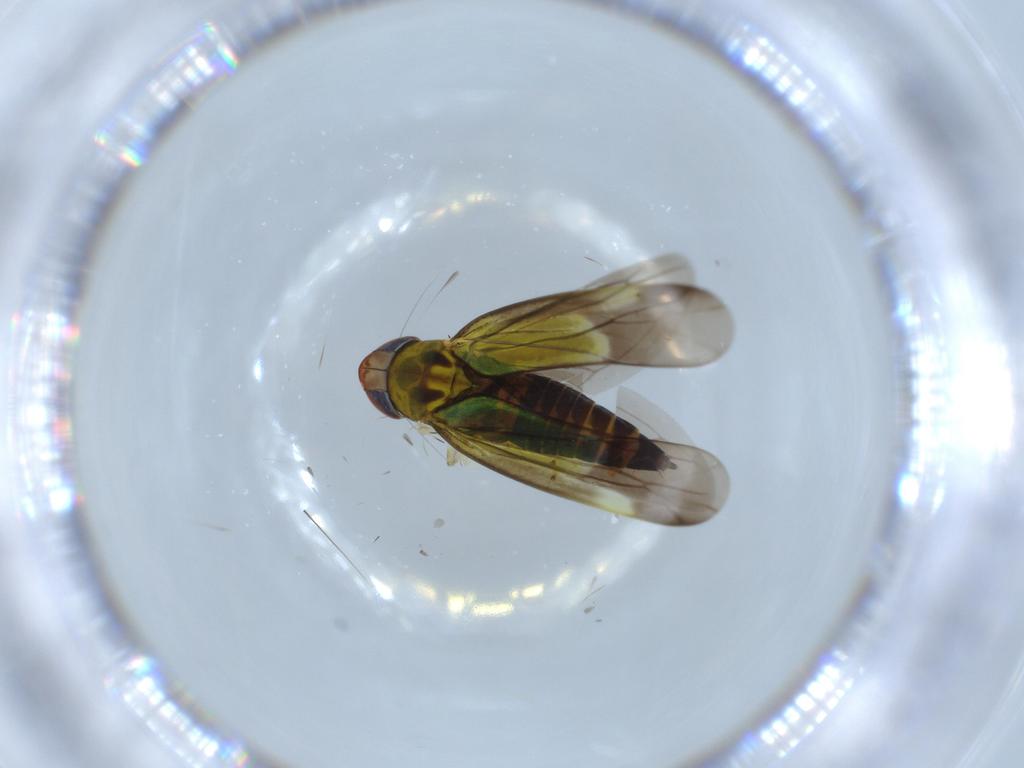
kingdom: Animalia
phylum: Arthropoda
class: Insecta
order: Hemiptera
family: Cicadellidae
